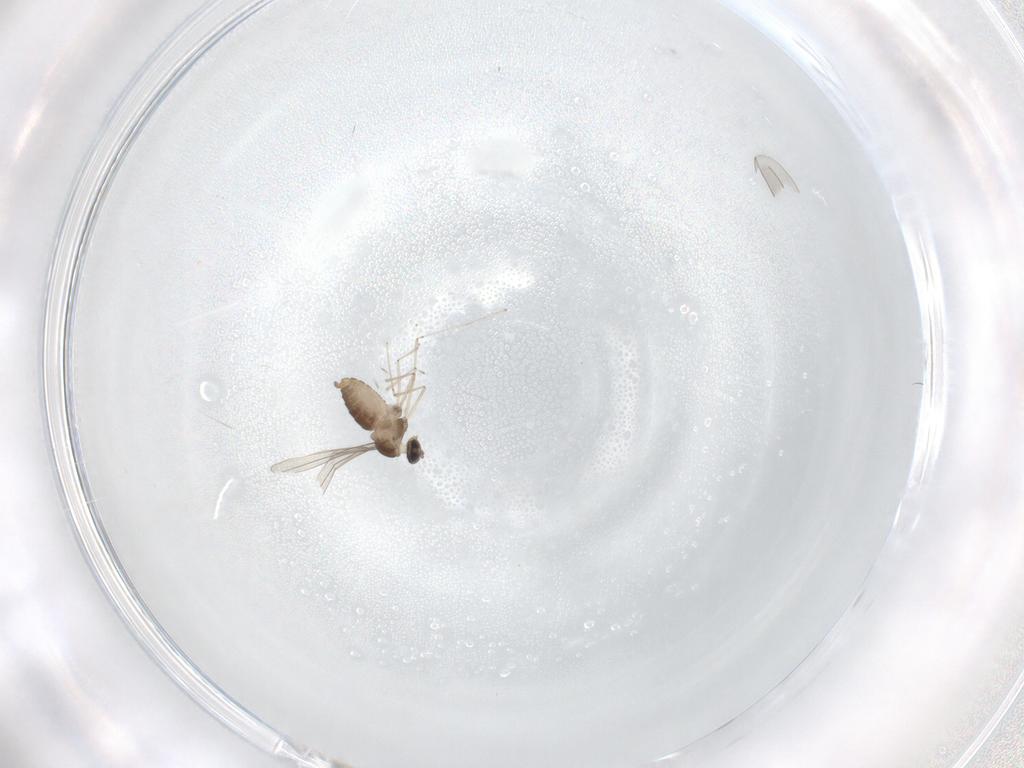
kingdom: Animalia
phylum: Arthropoda
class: Insecta
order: Diptera
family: Cecidomyiidae
